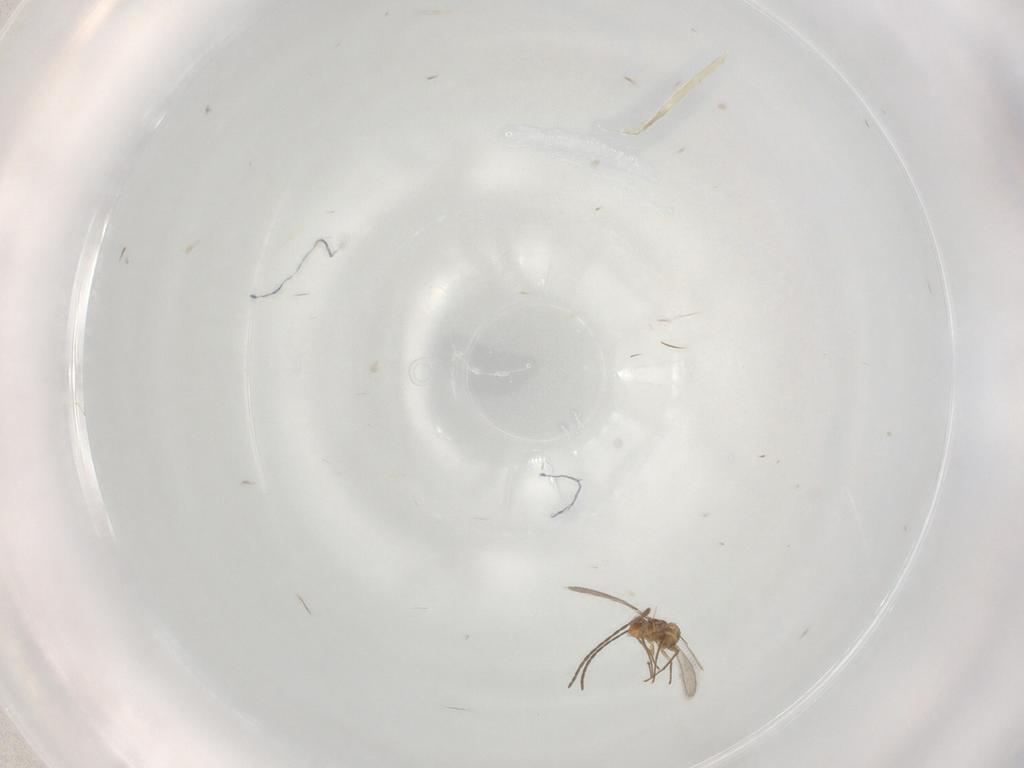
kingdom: Animalia
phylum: Arthropoda
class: Insecta
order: Hymenoptera
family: Mymaridae
